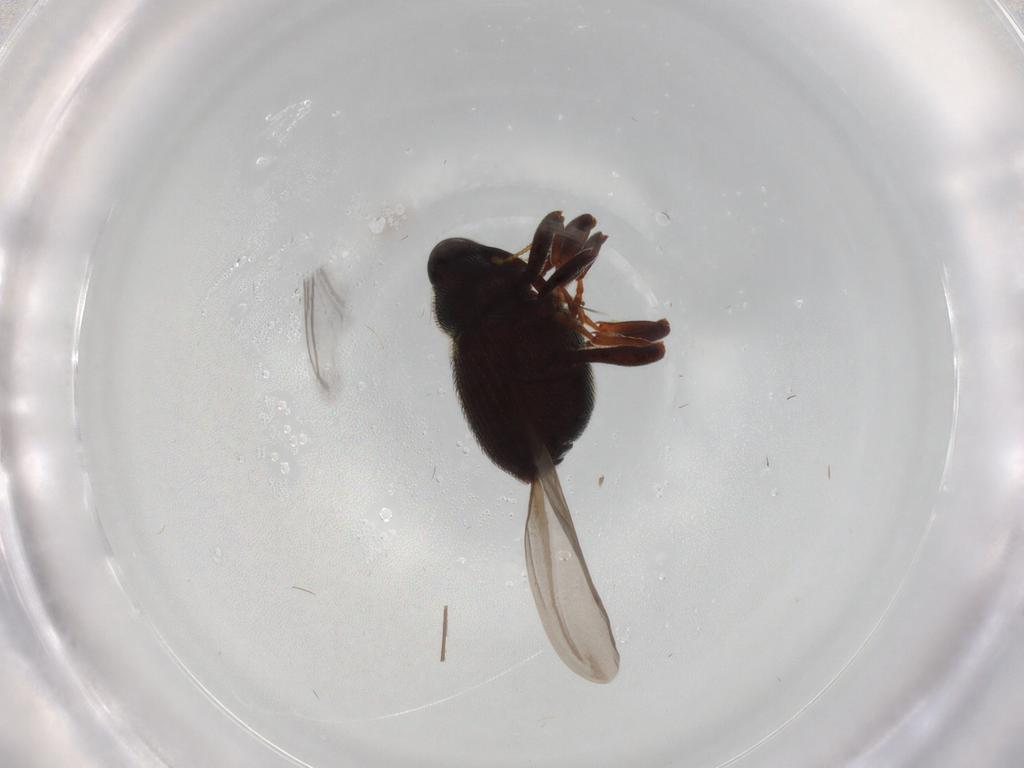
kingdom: Animalia
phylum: Arthropoda
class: Insecta
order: Coleoptera
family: Curculionidae
